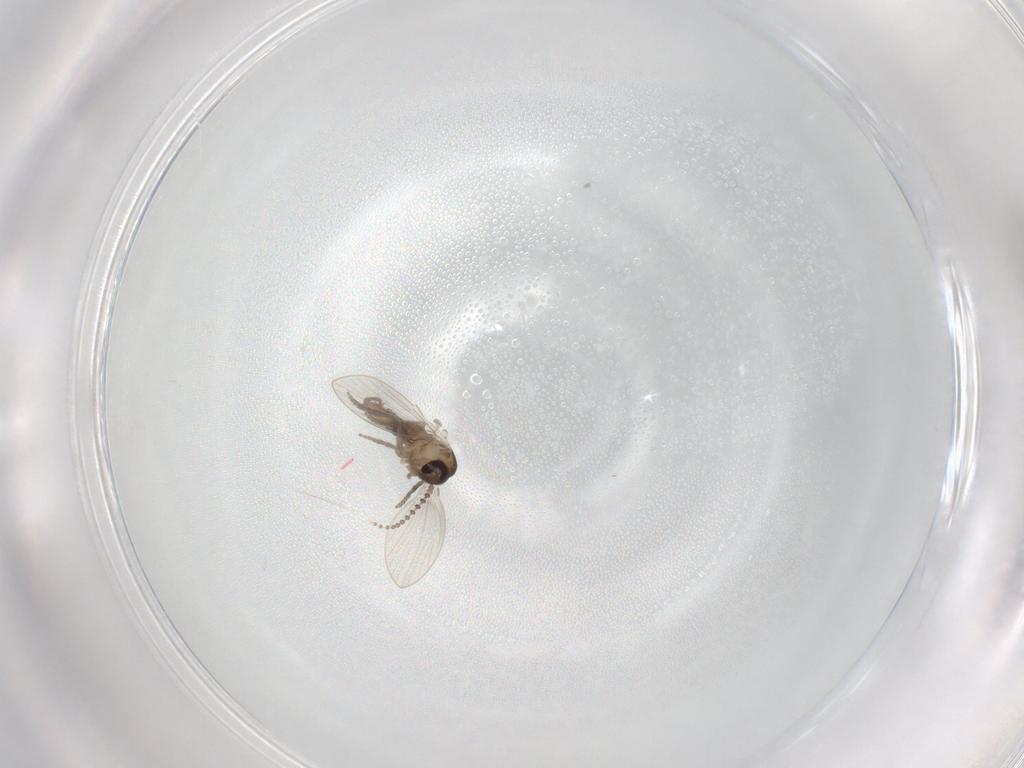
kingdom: Animalia
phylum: Arthropoda
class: Insecta
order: Diptera
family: Psychodidae
